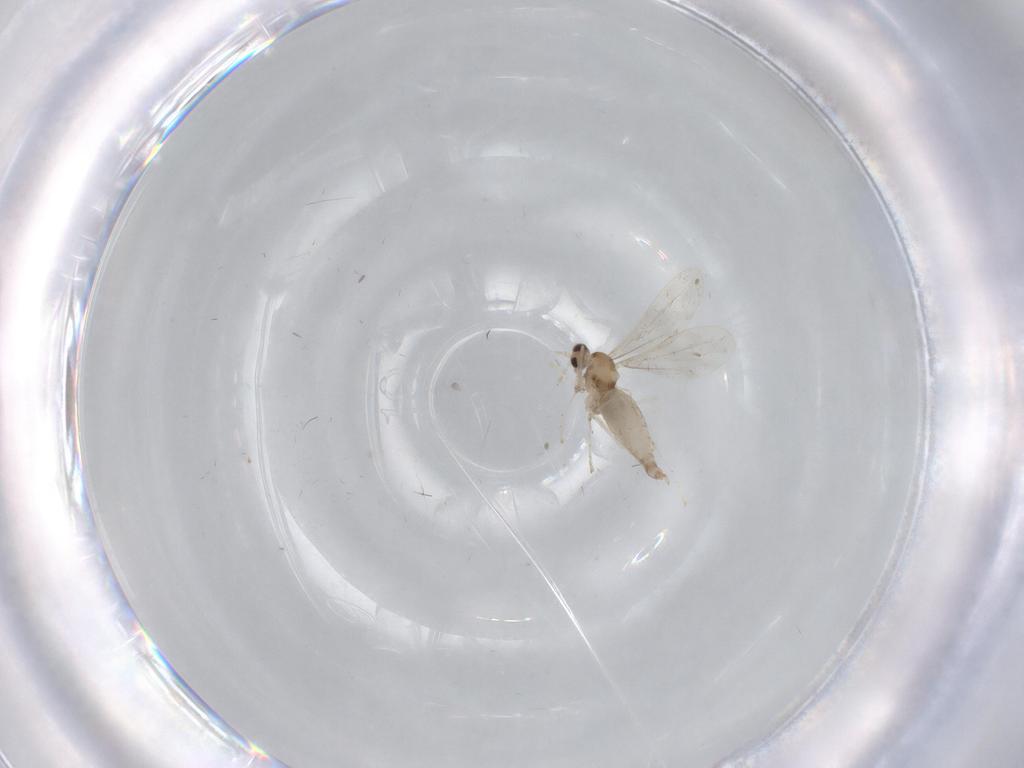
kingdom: Animalia
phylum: Arthropoda
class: Insecta
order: Diptera
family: Cecidomyiidae
